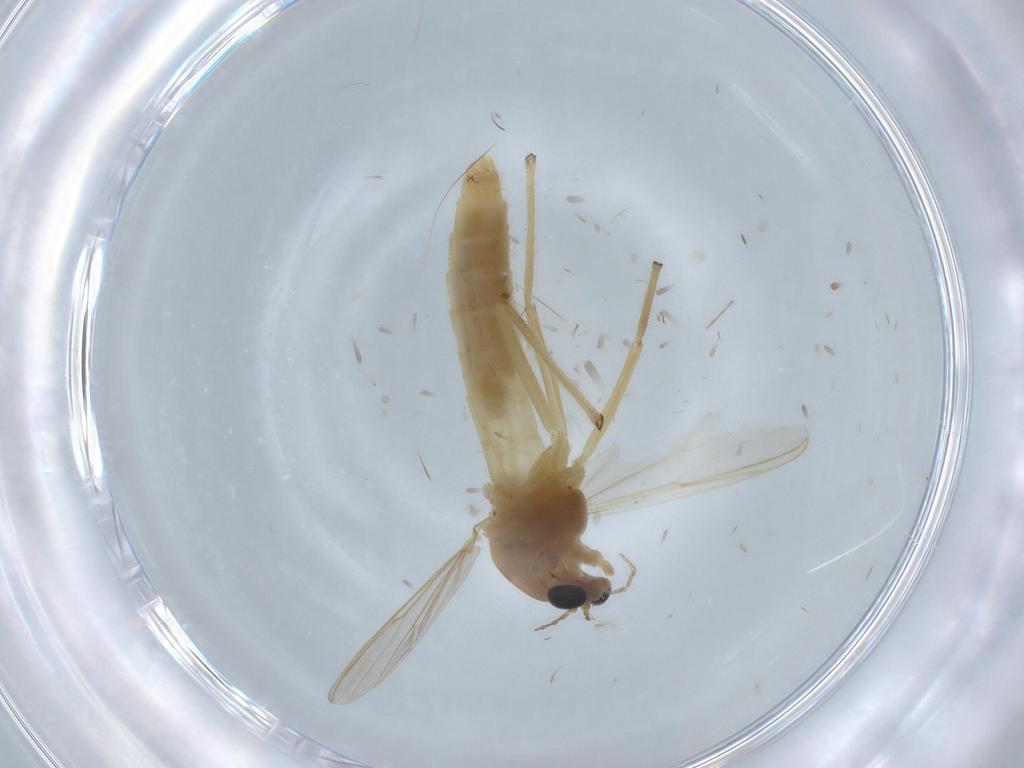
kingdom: Animalia
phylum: Arthropoda
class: Insecta
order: Diptera
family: Chironomidae
